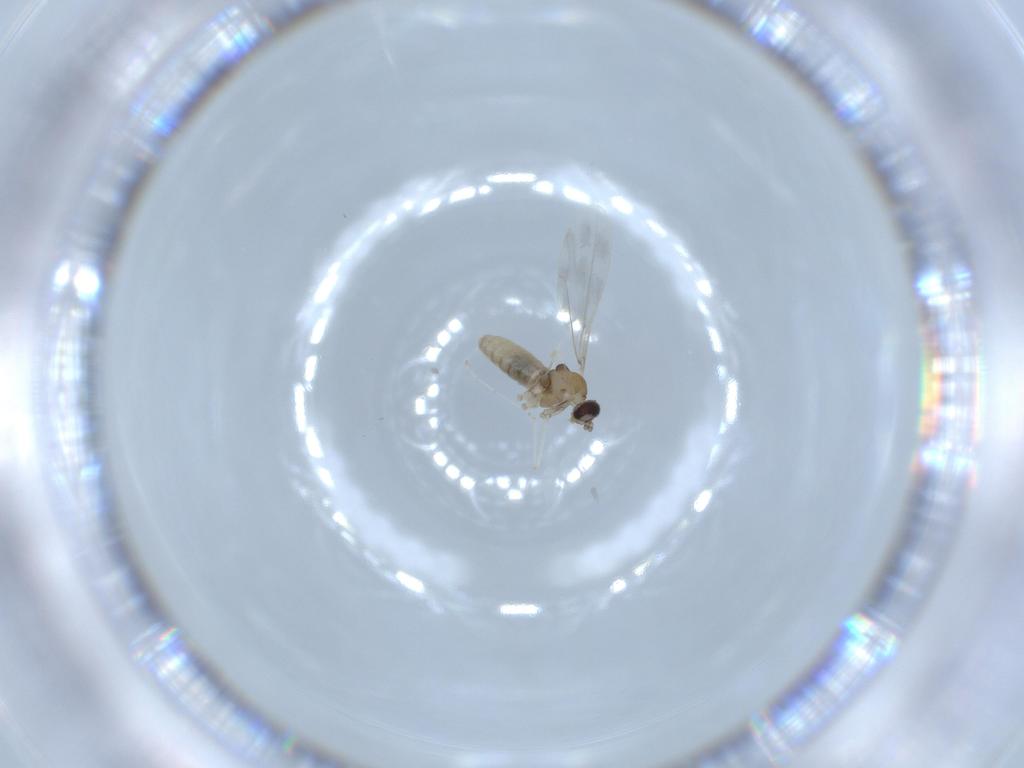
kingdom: Animalia
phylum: Arthropoda
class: Insecta
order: Diptera
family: Cecidomyiidae
